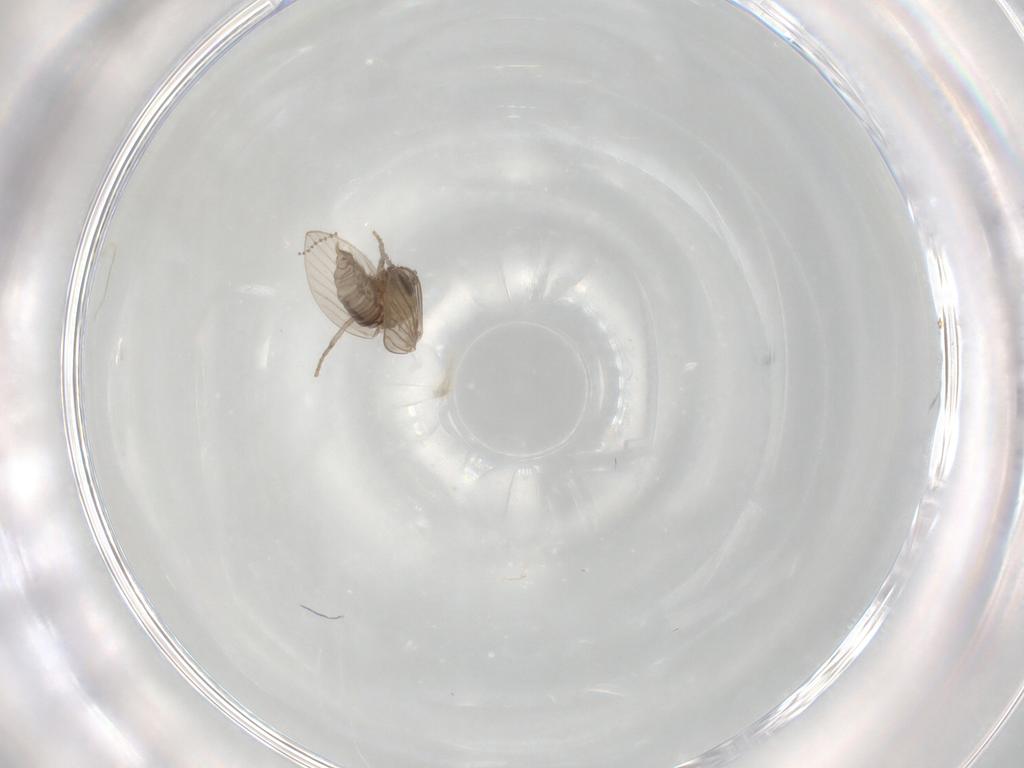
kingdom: Animalia
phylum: Arthropoda
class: Insecta
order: Diptera
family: Psychodidae
